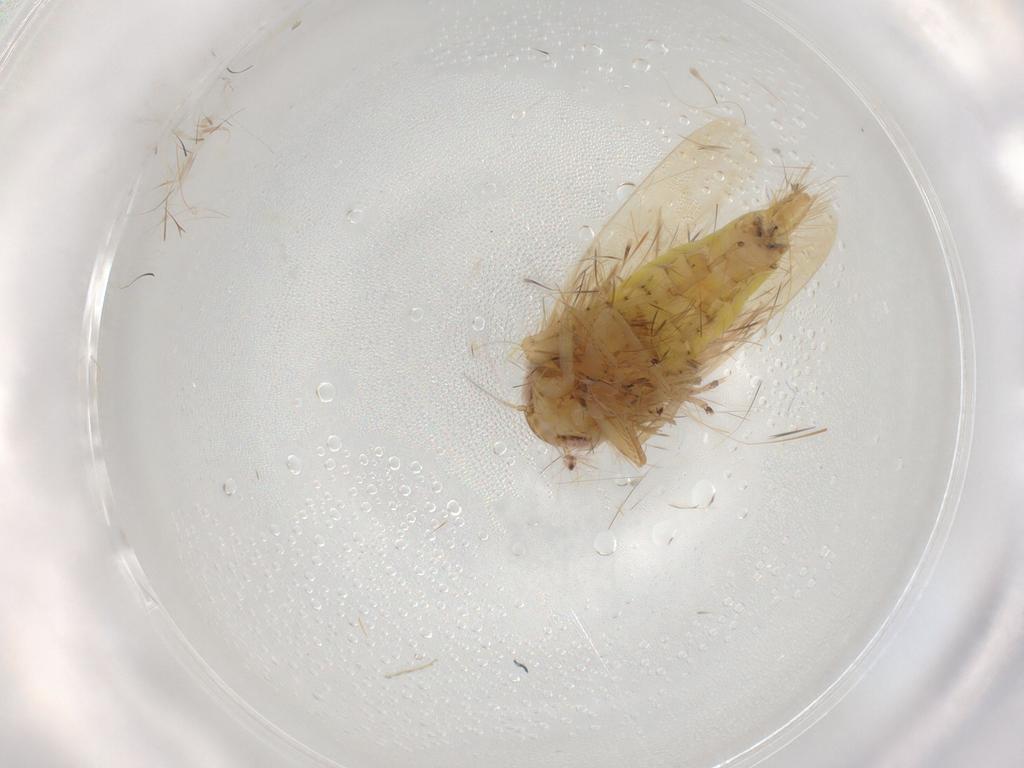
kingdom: Animalia
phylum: Arthropoda
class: Insecta
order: Hemiptera
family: Cicadellidae
